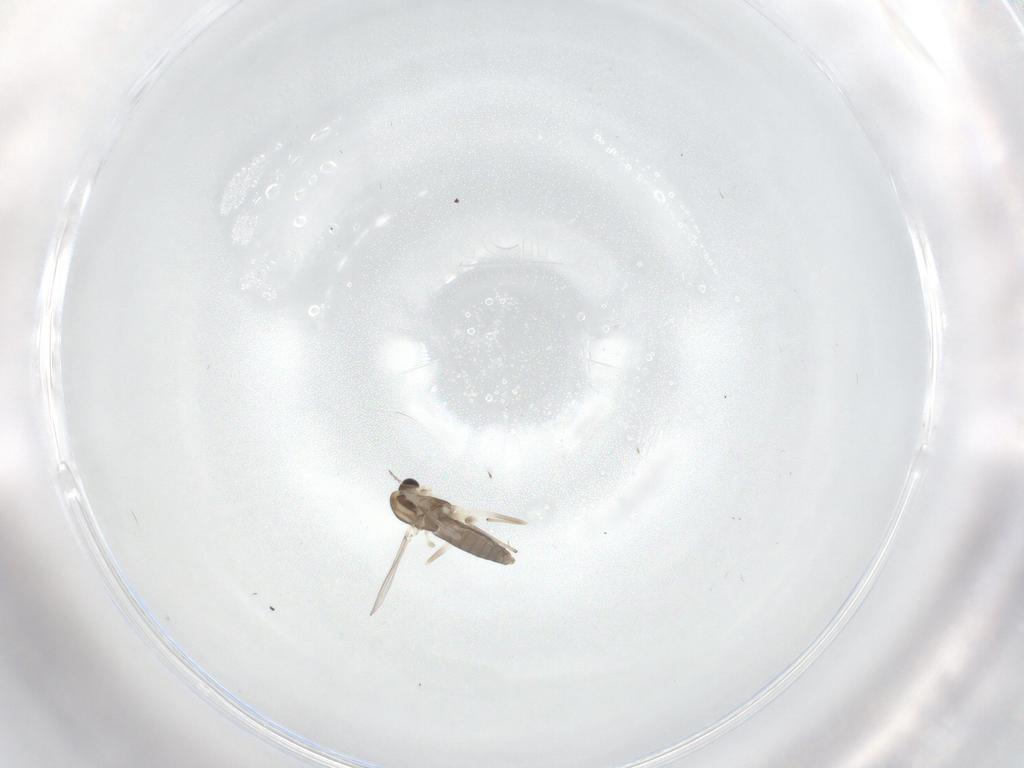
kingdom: Animalia
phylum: Arthropoda
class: Insecta
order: Diptera
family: Chironomidae
